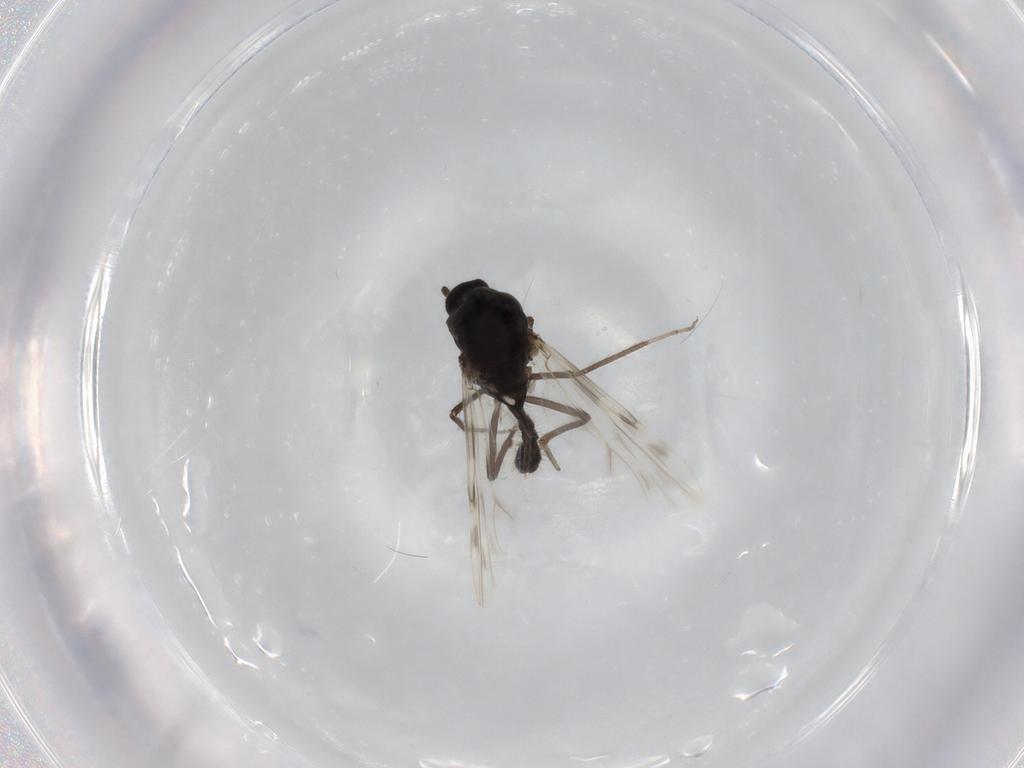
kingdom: Animalia
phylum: Arthropoda
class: Insecta
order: Diptera
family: Ceratopogonidae
